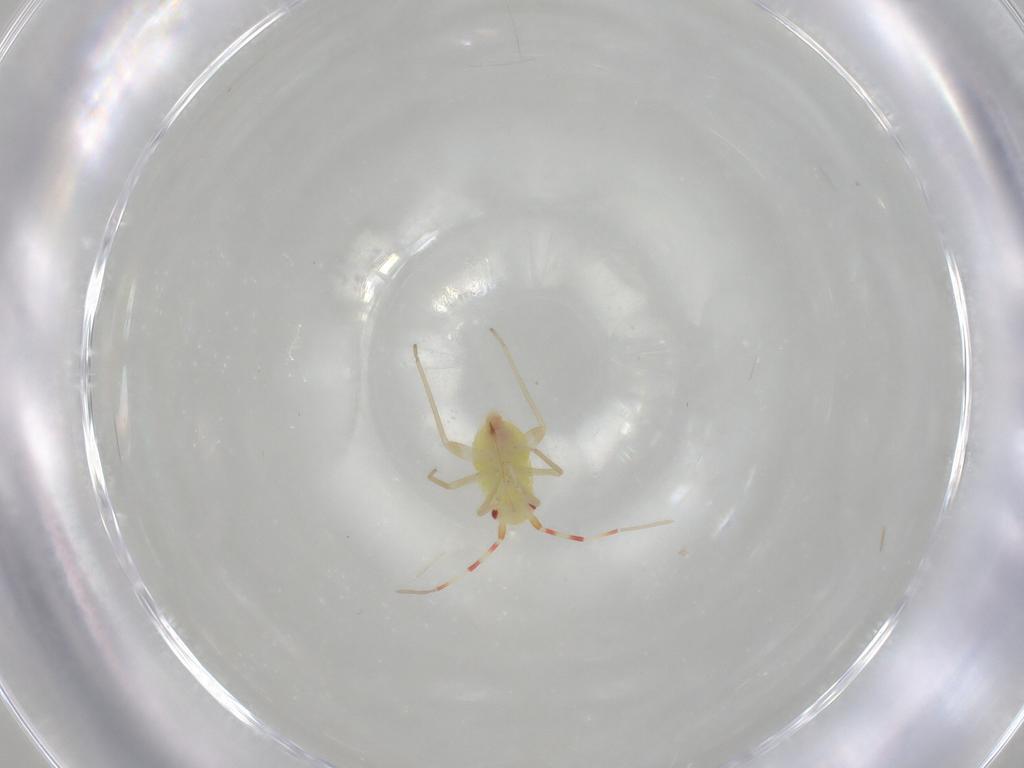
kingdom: Animalia
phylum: Arthropoda
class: Insecta
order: Hemiptera
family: Miridae
